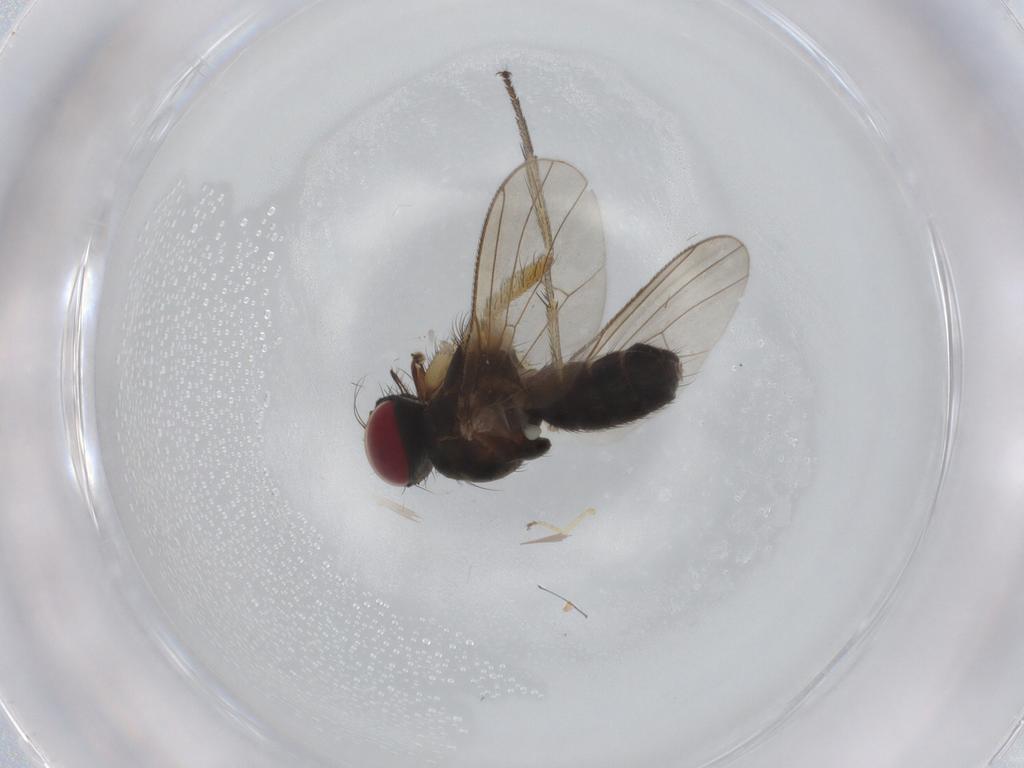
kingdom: Animalia
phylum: Arthropoda
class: Insecta
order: Diptera
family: Muscidae
